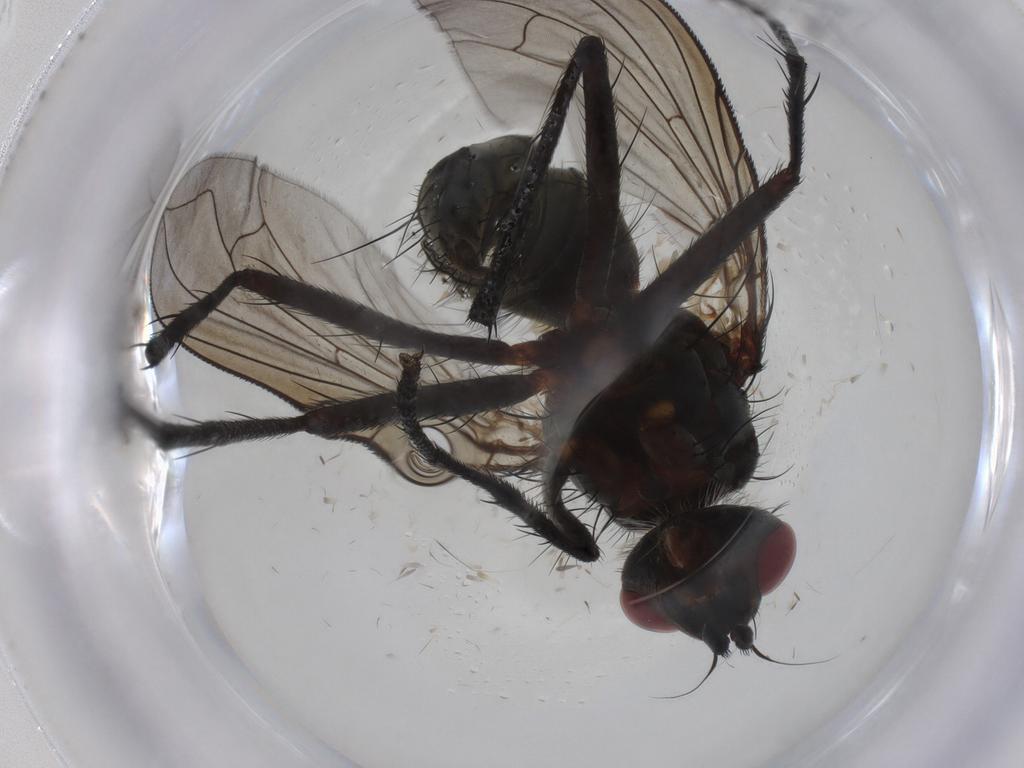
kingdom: Animalia
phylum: Arthropoda
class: Insecta
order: Diptera
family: Tachinidae
